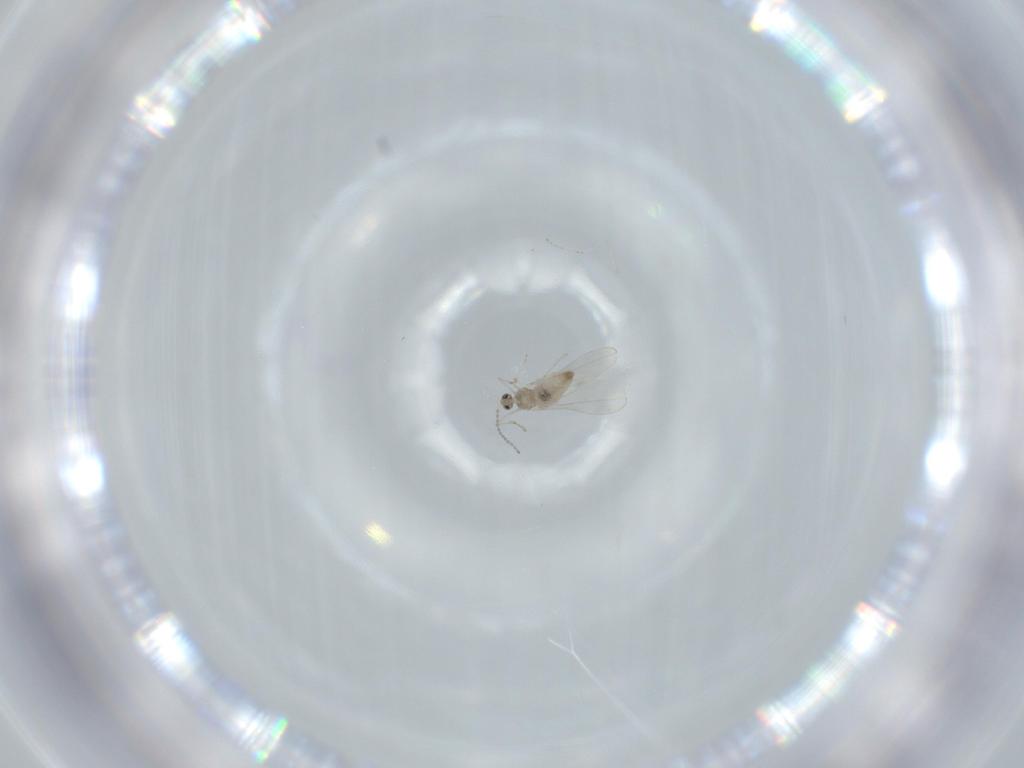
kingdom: Animalia
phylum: Arthropoda
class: Insecta
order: Diptera
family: Cecidomyiidae
